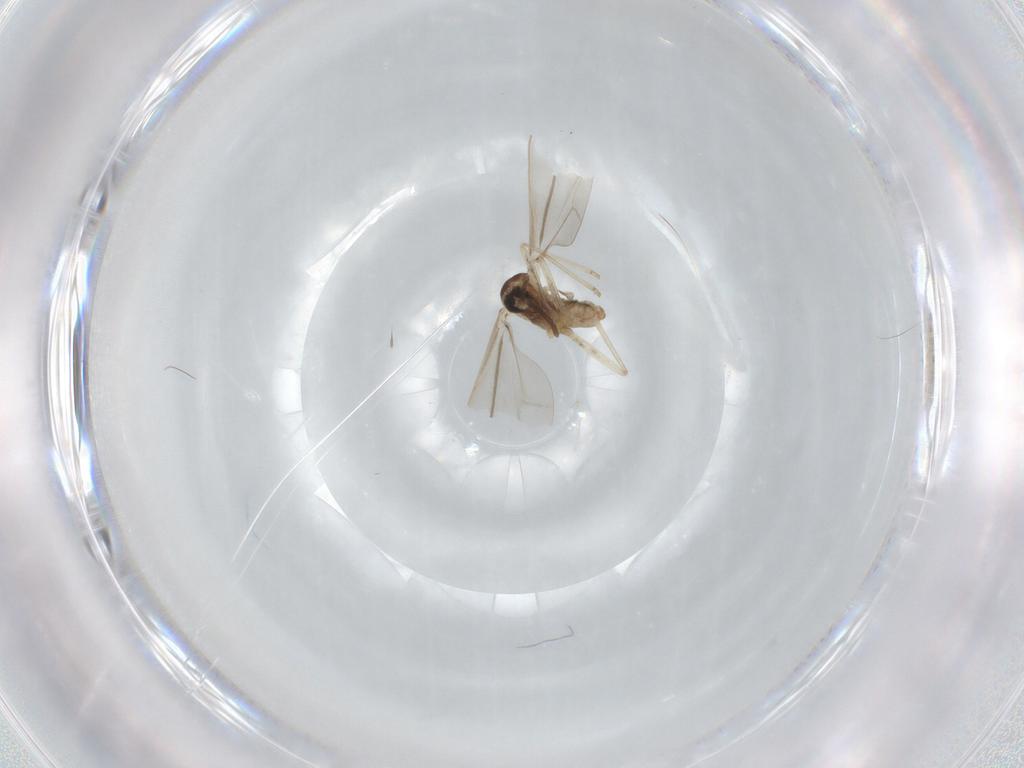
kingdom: Animalia
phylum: Arthropoda
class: Insecta
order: Diptera
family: Cecidomyiidae
